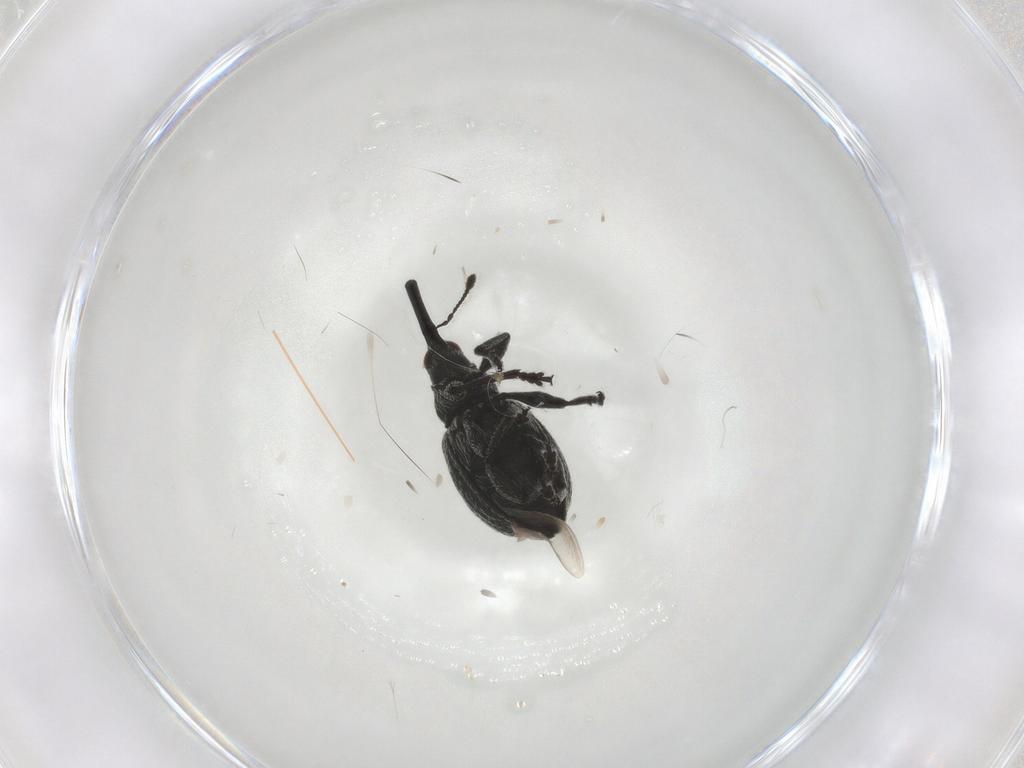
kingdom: Animalia
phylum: Arthropoda
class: Insecta
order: Coleoptera
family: Brentidae
